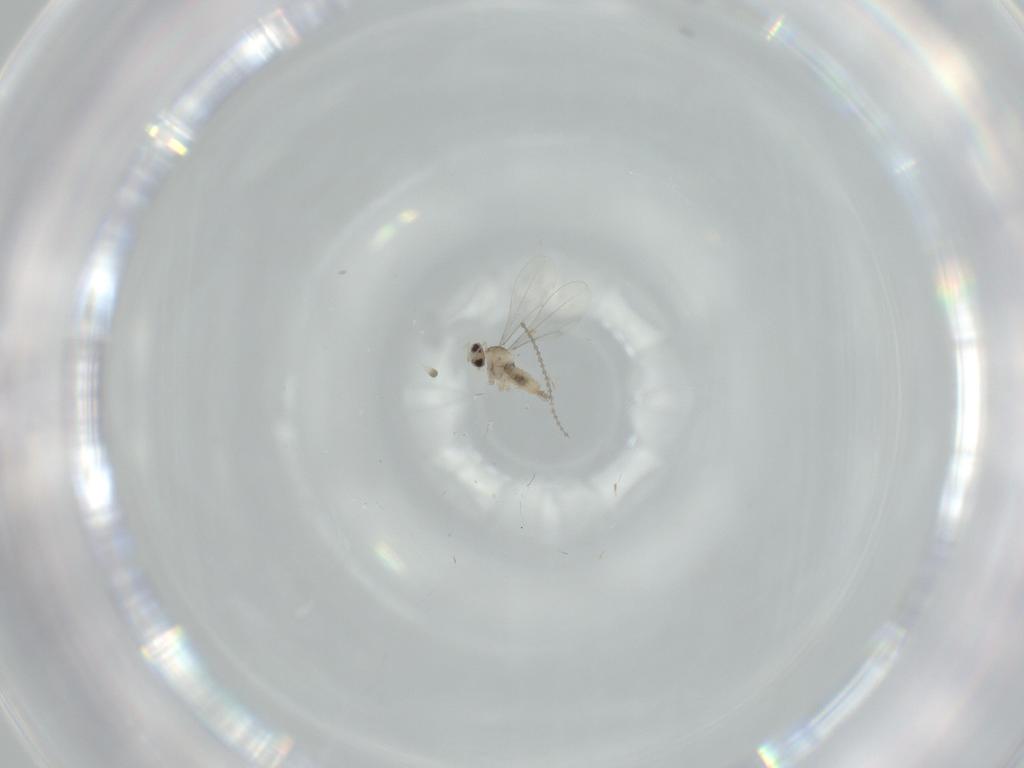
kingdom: Animalia
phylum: Arthropoda
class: Insecta
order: Diptera
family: Cecidomyiidae
